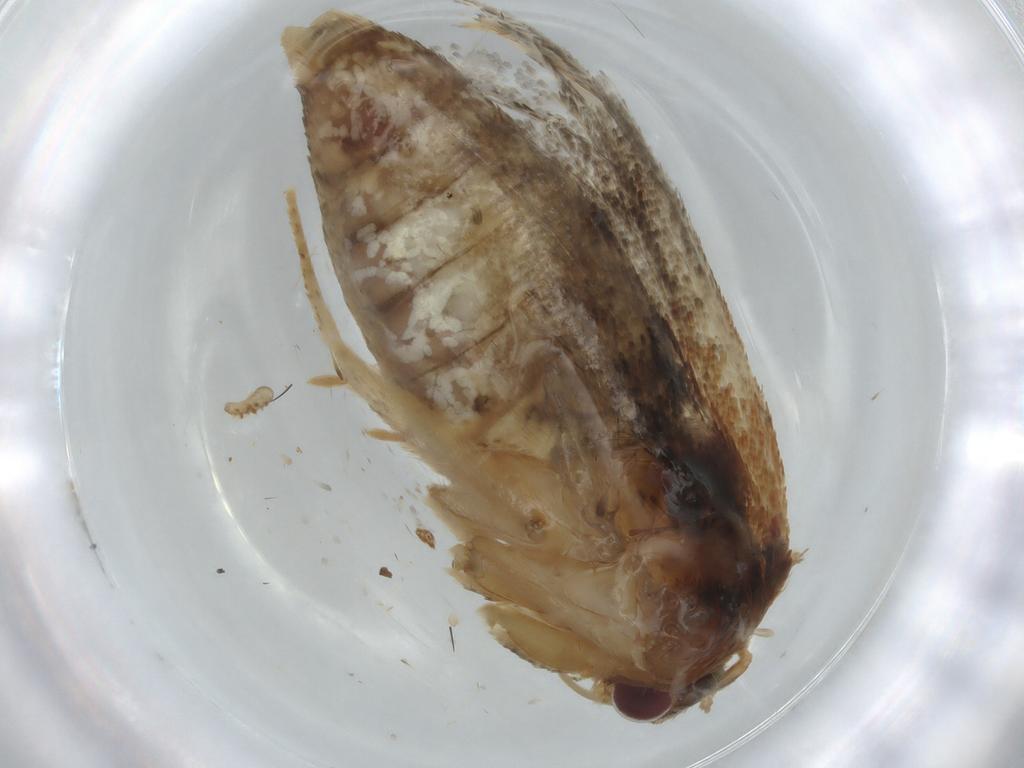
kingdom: Animalia
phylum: Arthropoda
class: Insecta
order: Lepidoptera
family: Tortricidae
